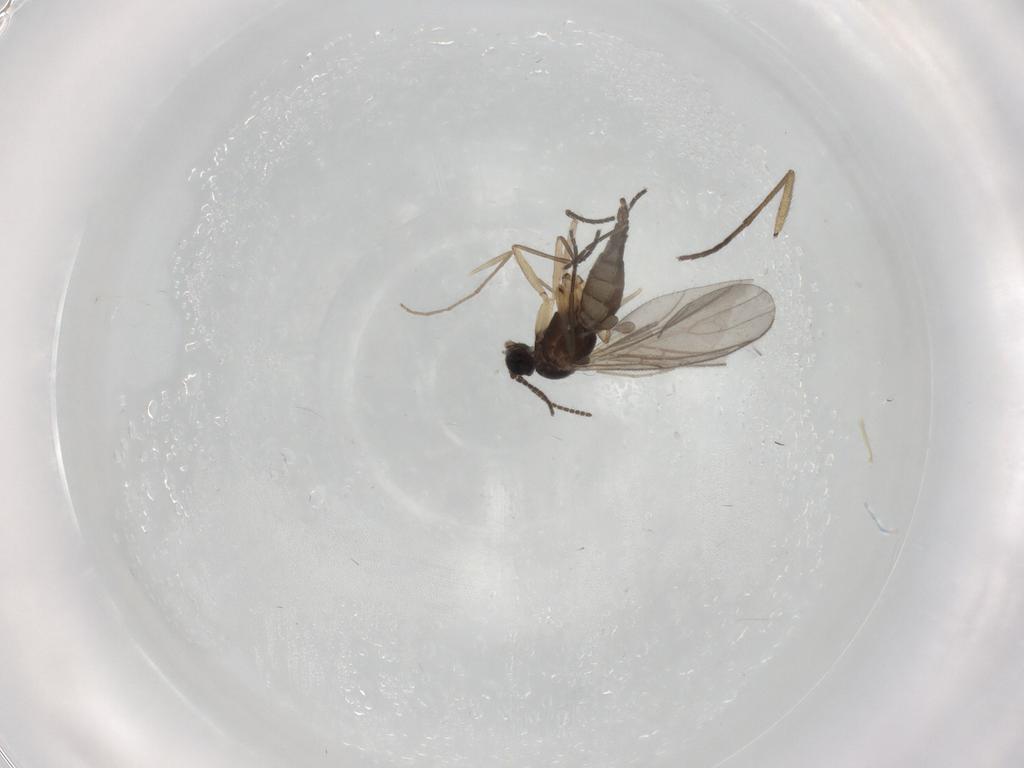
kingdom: Animalia
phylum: Arthropoda
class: Insecta
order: Diptera
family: Sciaridae
